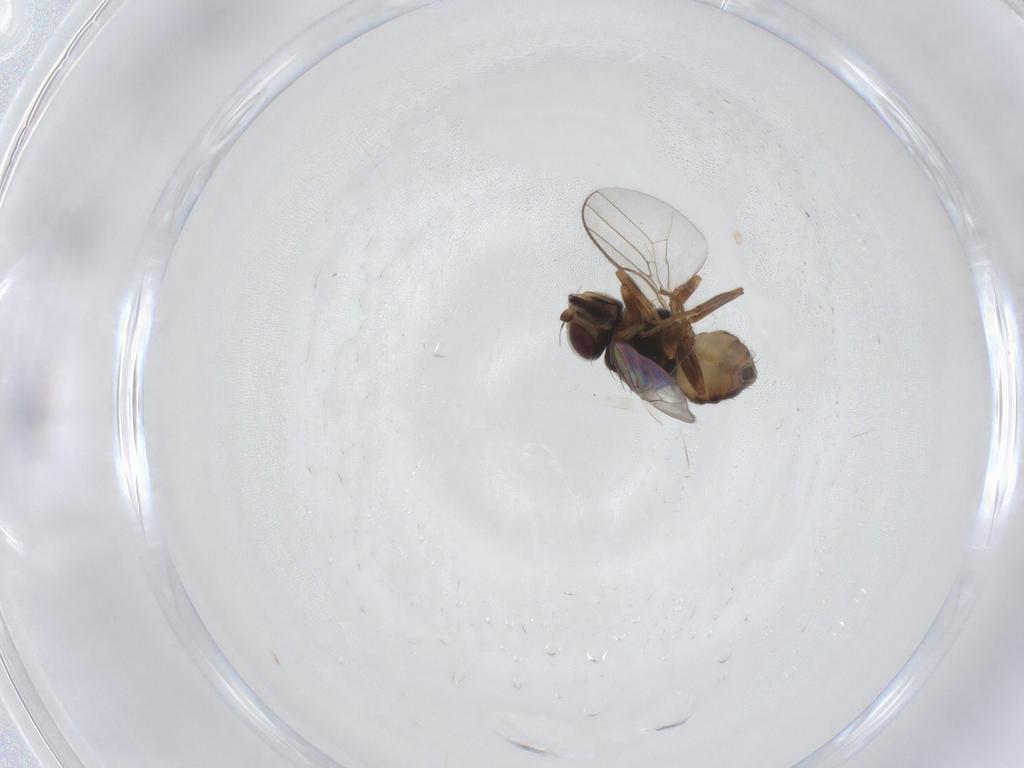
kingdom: Animalia
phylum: Arthropoda
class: Insecta
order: Diptera
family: Chloropidae
